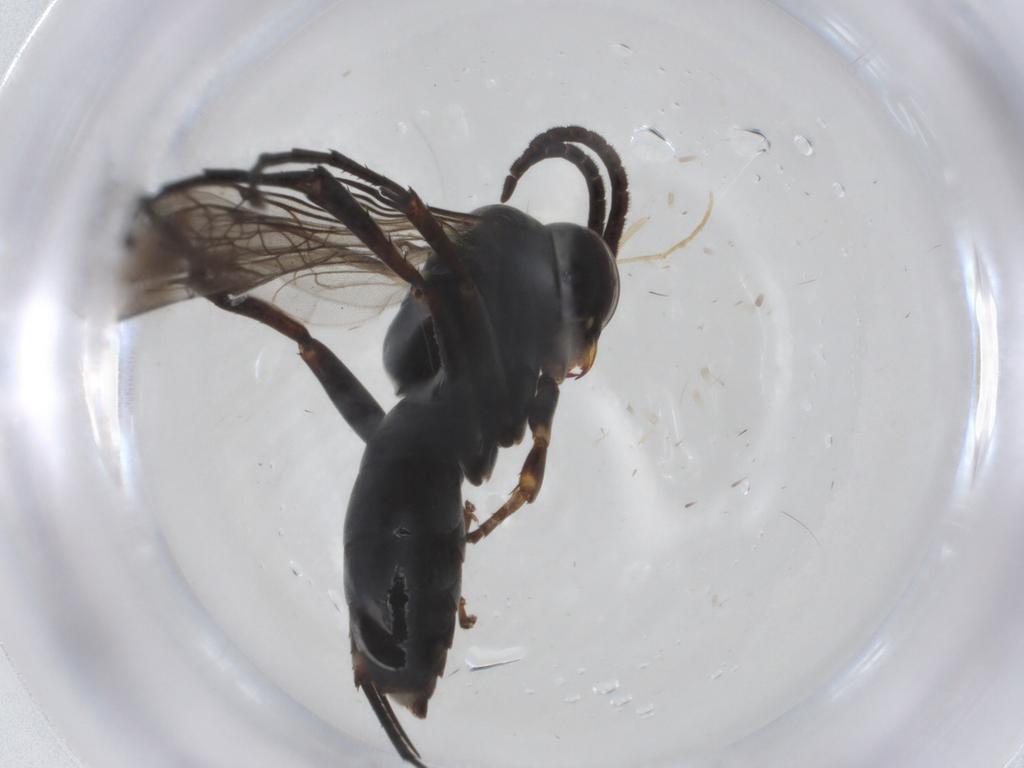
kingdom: Animalia
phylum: Arthropoda
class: Insecta
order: Hymenoptera
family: Pompilidae
